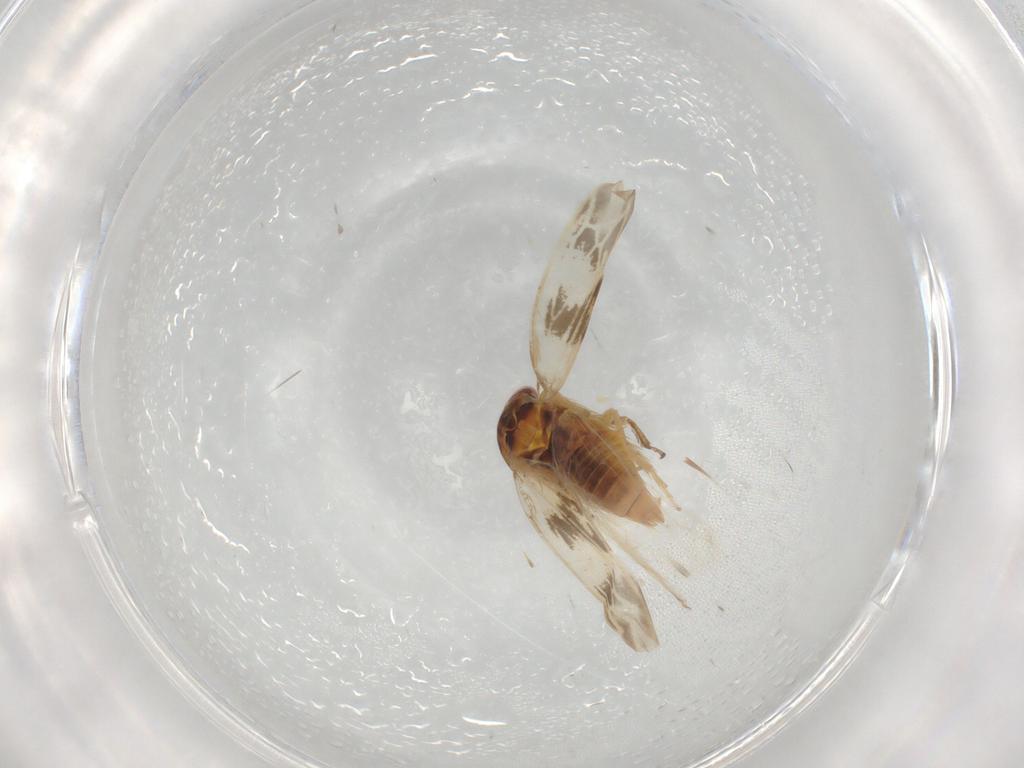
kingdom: Animalia
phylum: Arthropoda
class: Insecta
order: Hemiptera
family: Cicadellidae
